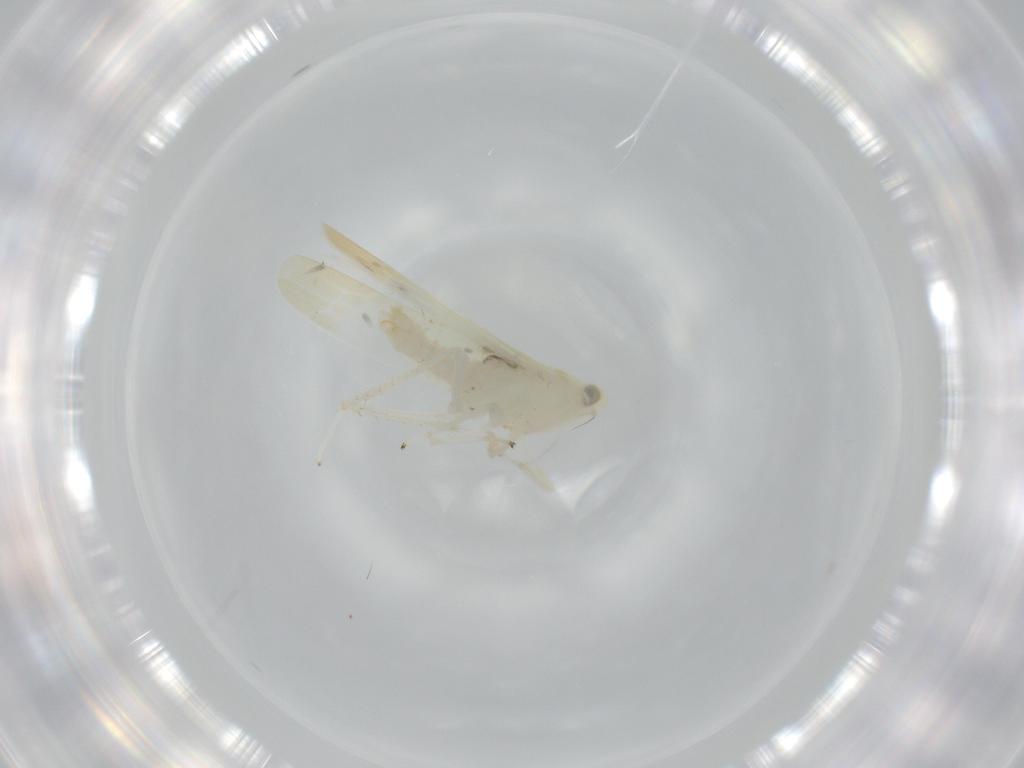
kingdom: Animalia
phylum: Arthropoda
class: Insecta
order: Hemiptera
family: Cicadellidae
